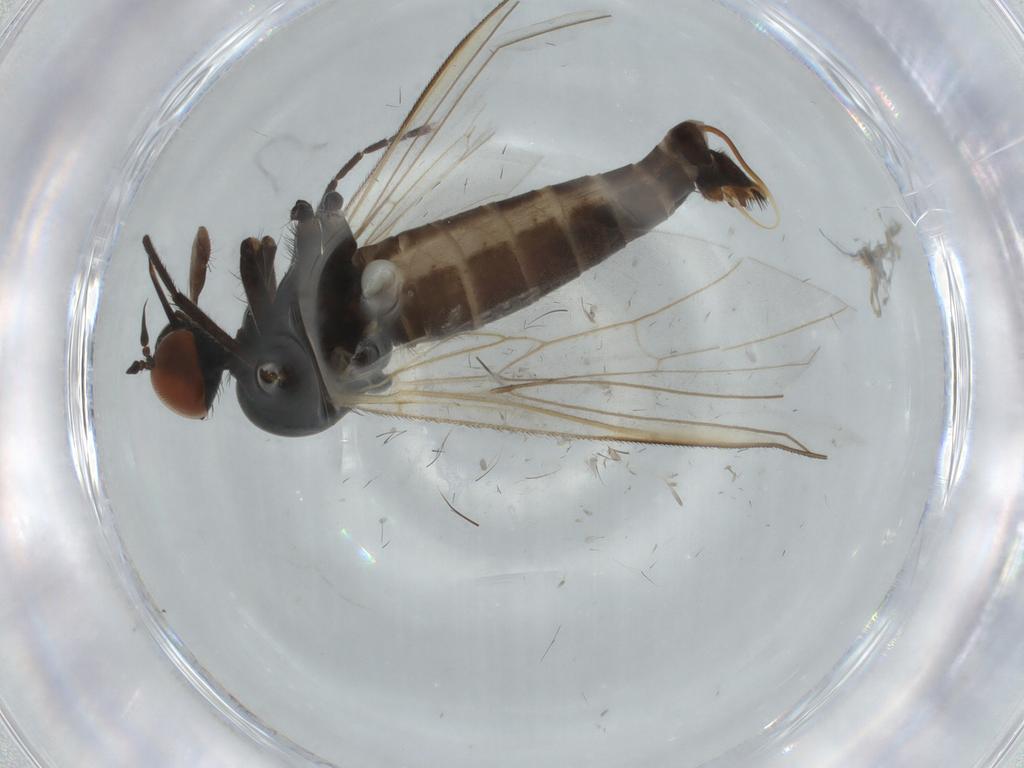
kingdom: Animalia
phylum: Arthropoda
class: Insecta
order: Diptera
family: Empididae
